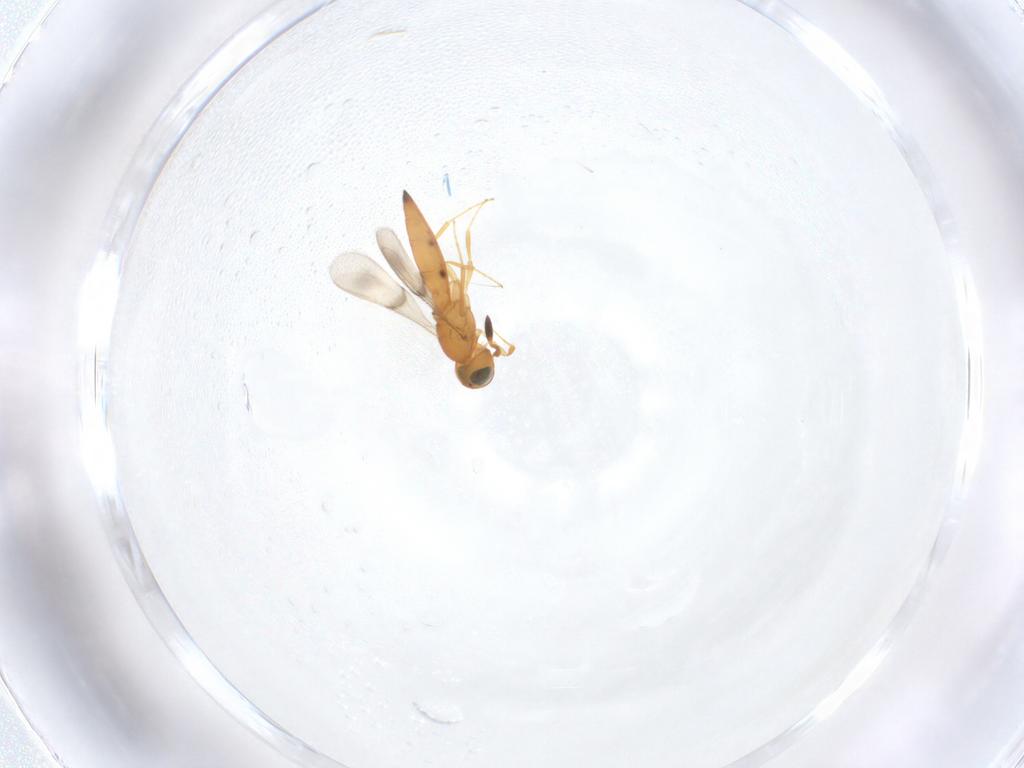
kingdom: Animalia
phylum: Arthropoda
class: Insecta
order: Hymenoptera
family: Scelionidae
